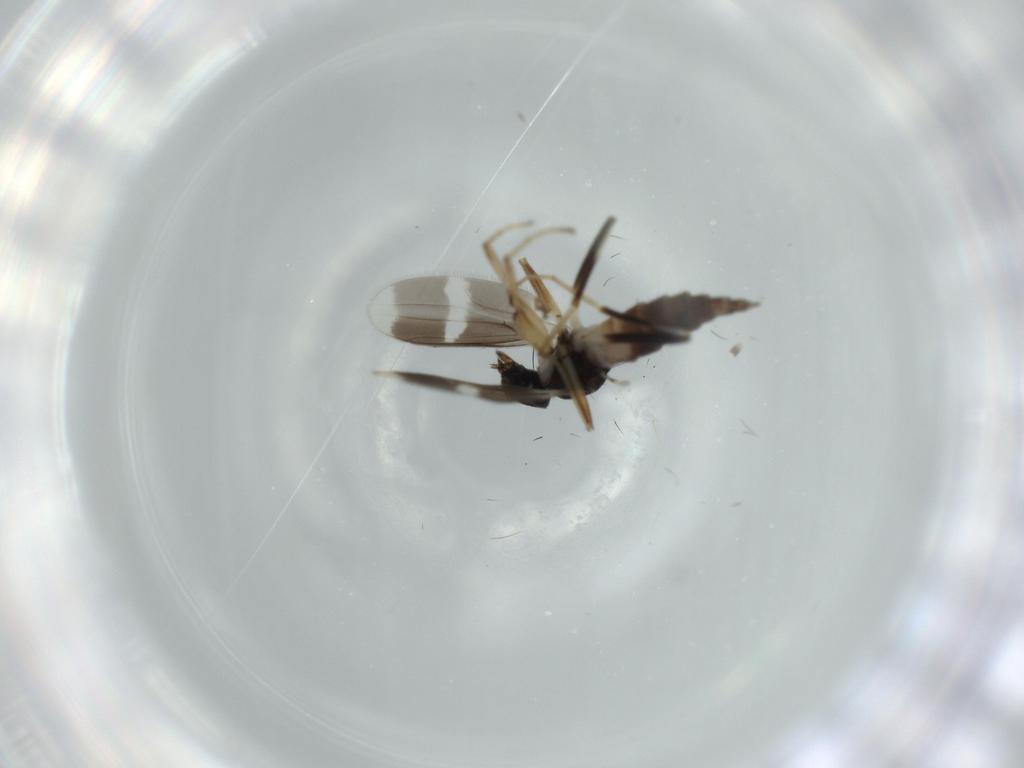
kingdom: Animalia
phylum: Arthropoda
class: Insecta
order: Diptera
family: Hybotidae
